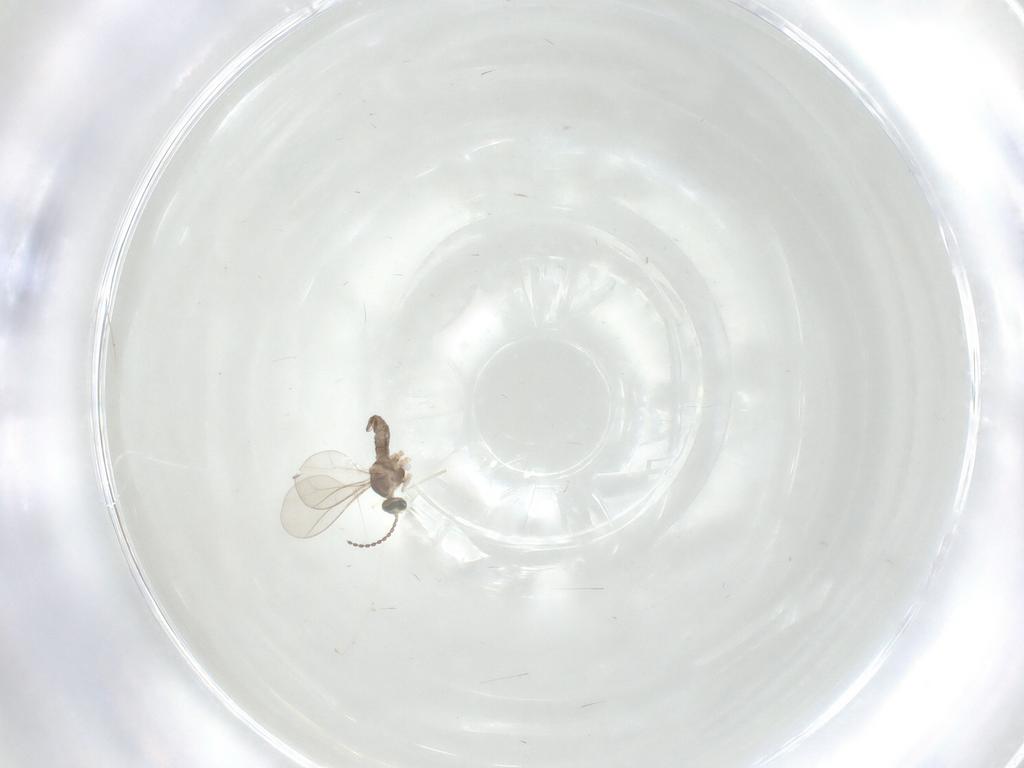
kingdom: Animalia
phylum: Arthropoda
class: Insecta
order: Diptera
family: Cecidomyiidae
